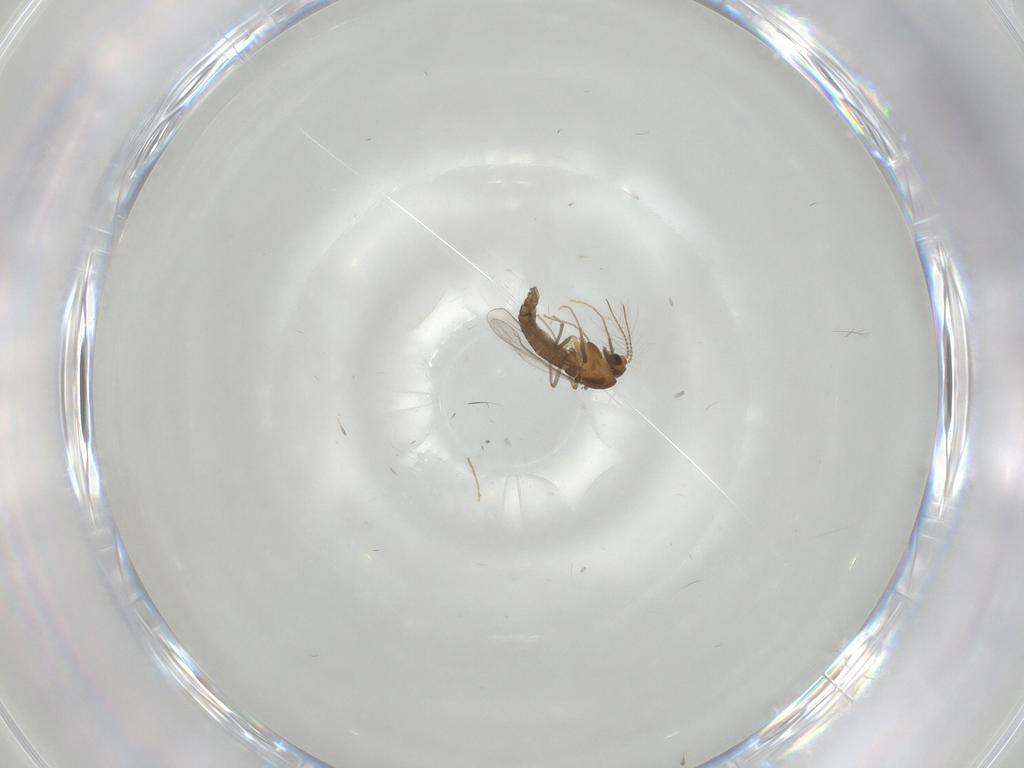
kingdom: Animalia
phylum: Arthropoda
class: Insecta
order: Diptera
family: Chironomidae
